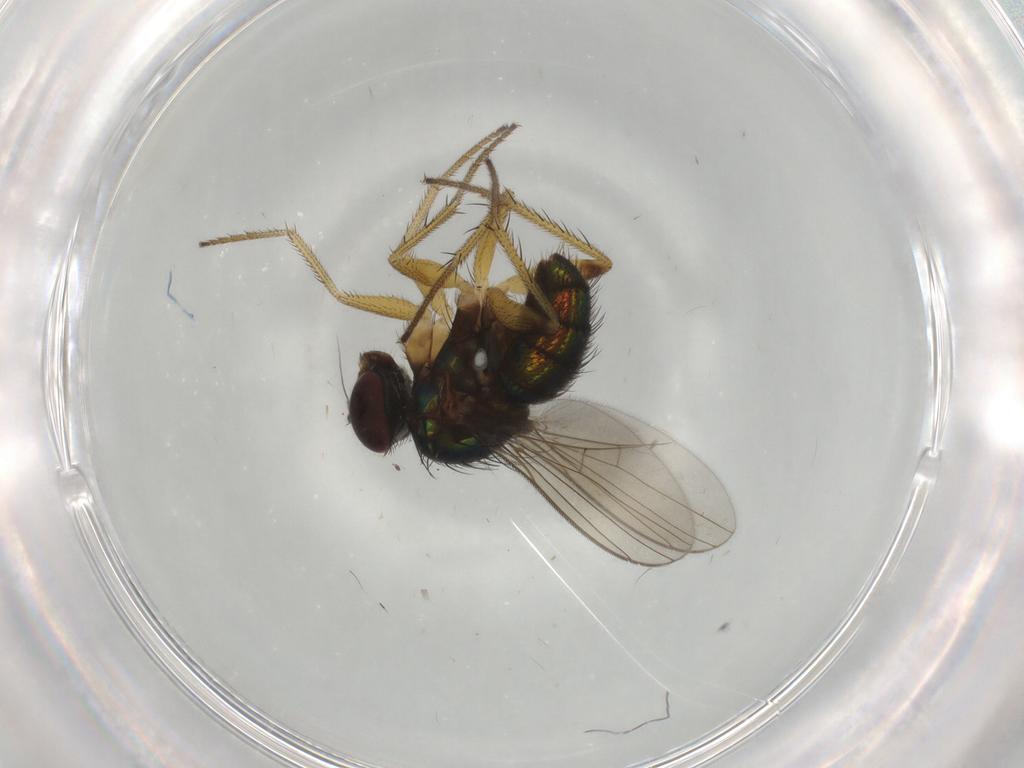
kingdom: Animalia
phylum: Arthropoda
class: Insecta
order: Diptera
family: Dolichopodidae
